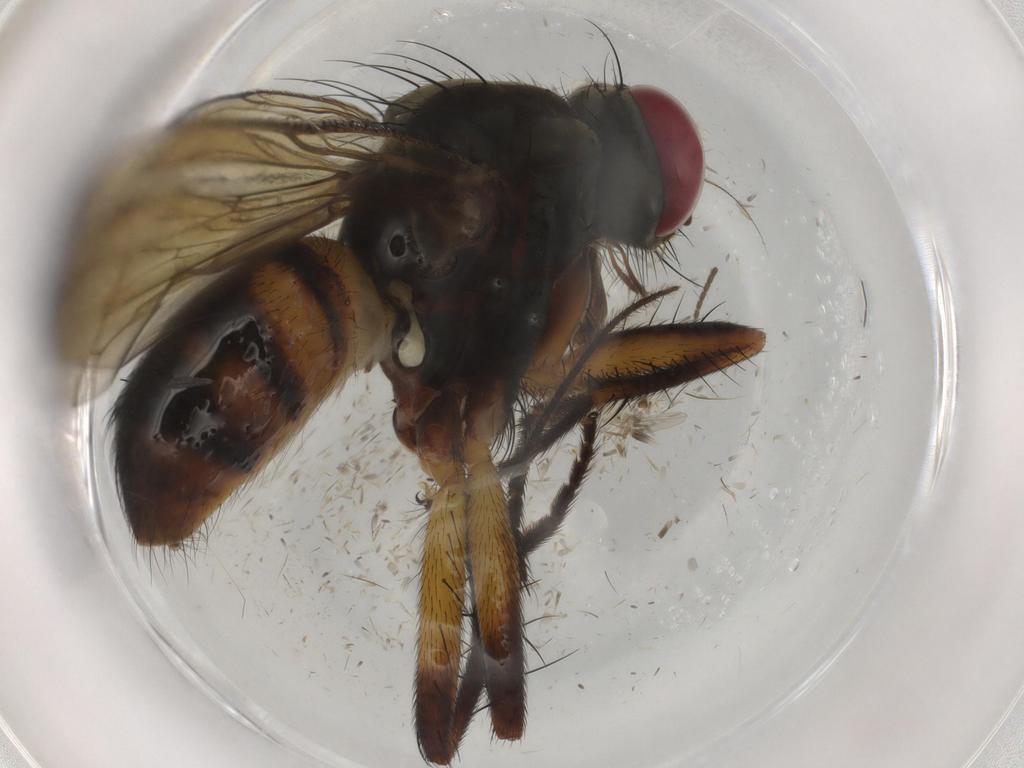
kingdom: Animalia
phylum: Arthropoda
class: Insecta
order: Diptera
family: Muscidae
